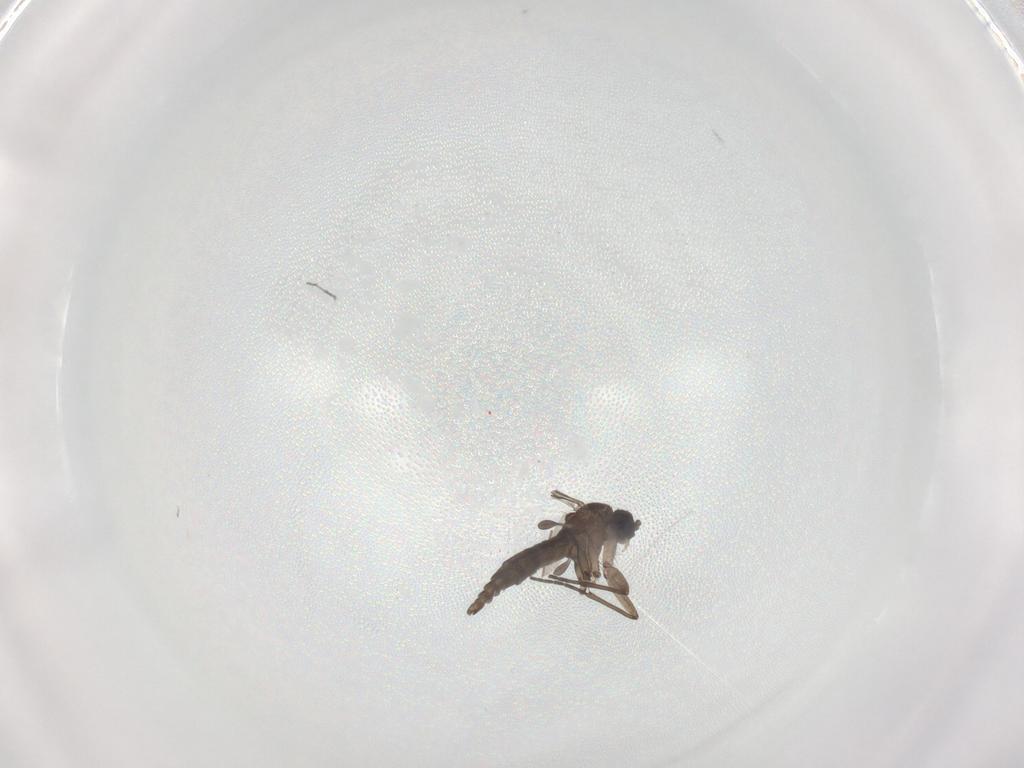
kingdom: Animalia
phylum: Arthropoda
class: Insecta
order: Diptera
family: Sciaridae
